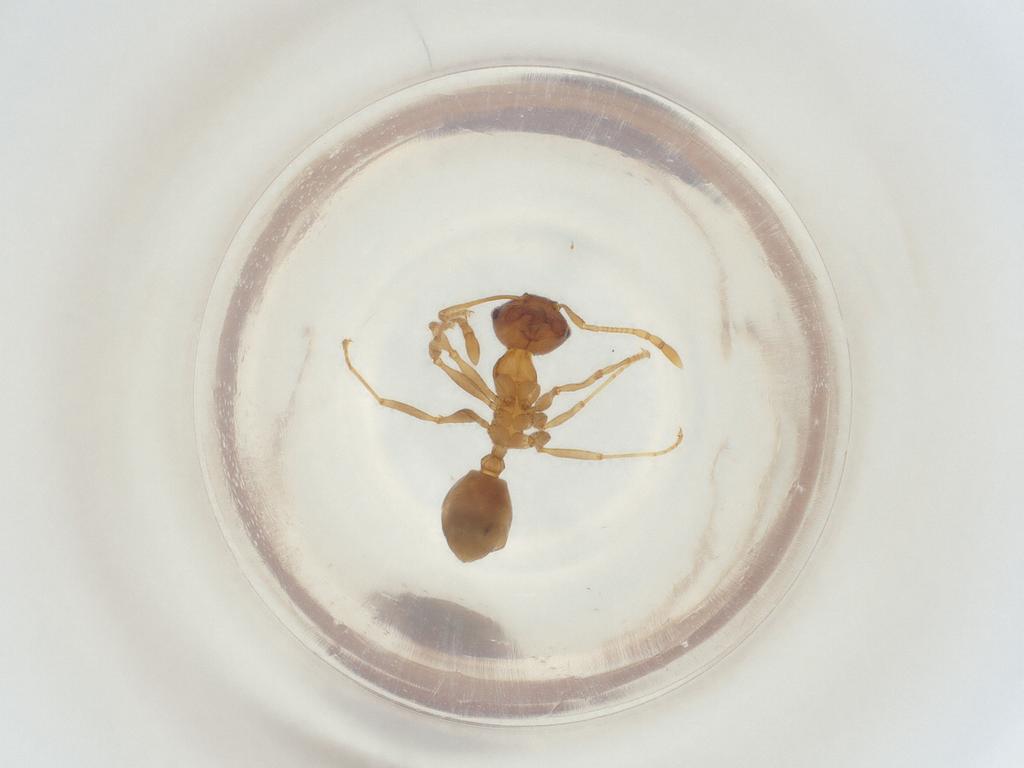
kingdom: Animalia
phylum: Arthropoda
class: Insecta
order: Hymenoptera
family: Formicidae
